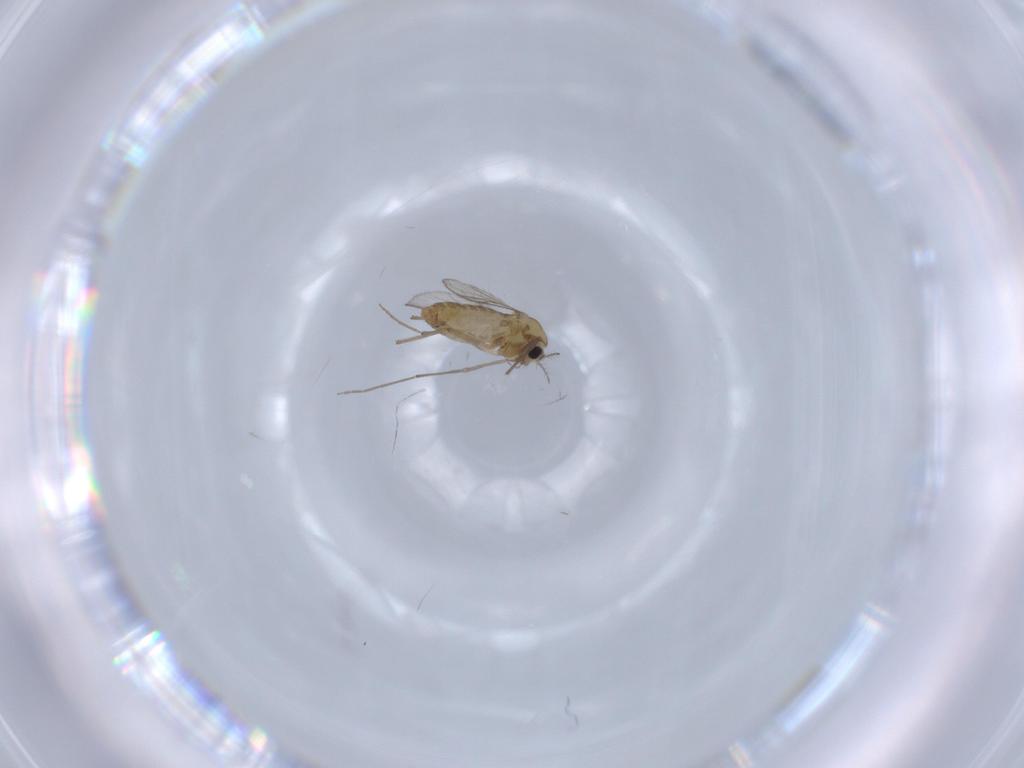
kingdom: Animalia
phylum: Arthropoda
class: Insecta
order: Diptera
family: Chironomidae
